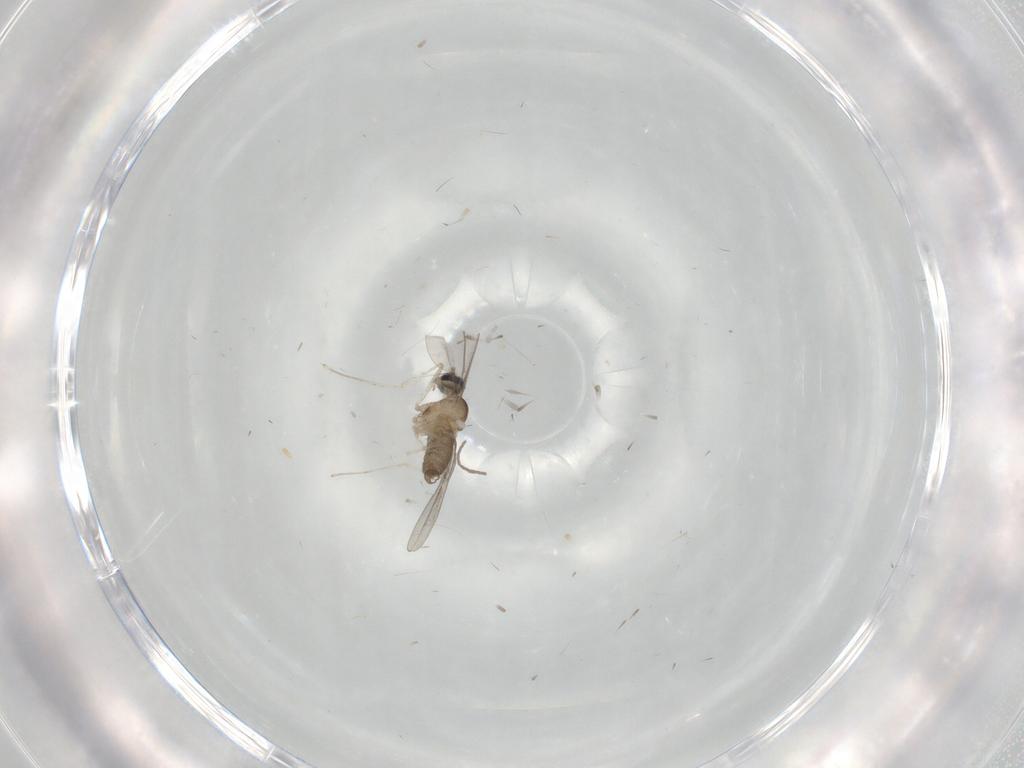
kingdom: Animalia
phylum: Arthropoda
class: Insecta
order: Diptera
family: Cecidomyiidae
